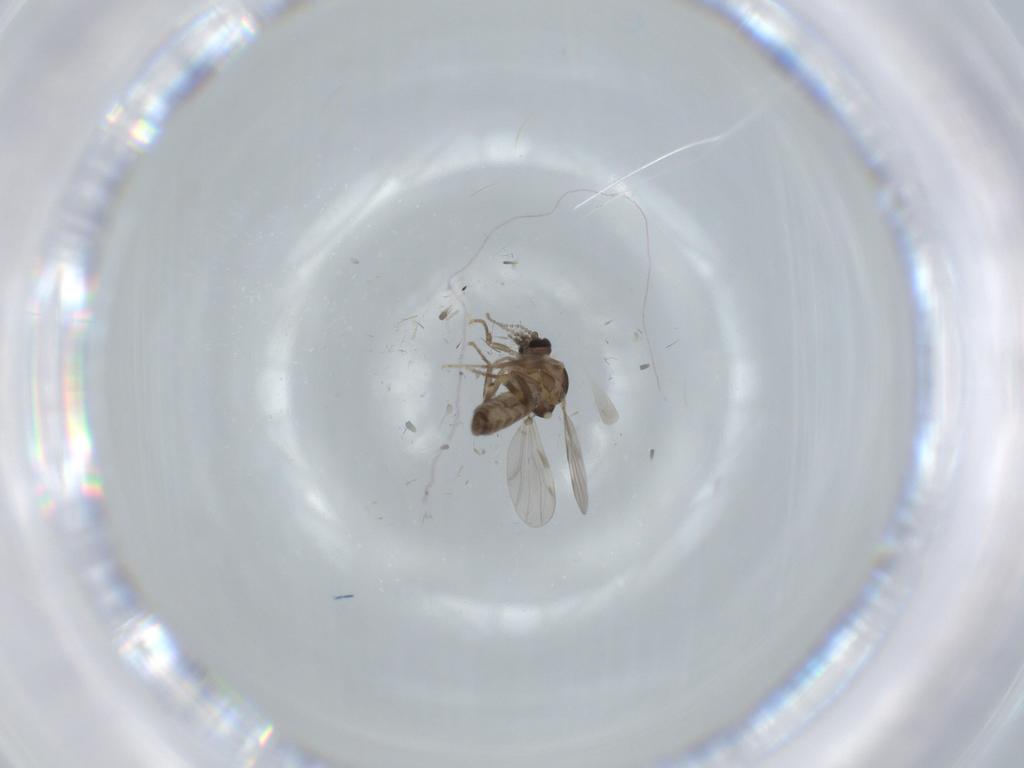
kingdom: Animalia
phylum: Arthropoda
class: Insecta
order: Diptera
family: Ceratopogonidae
